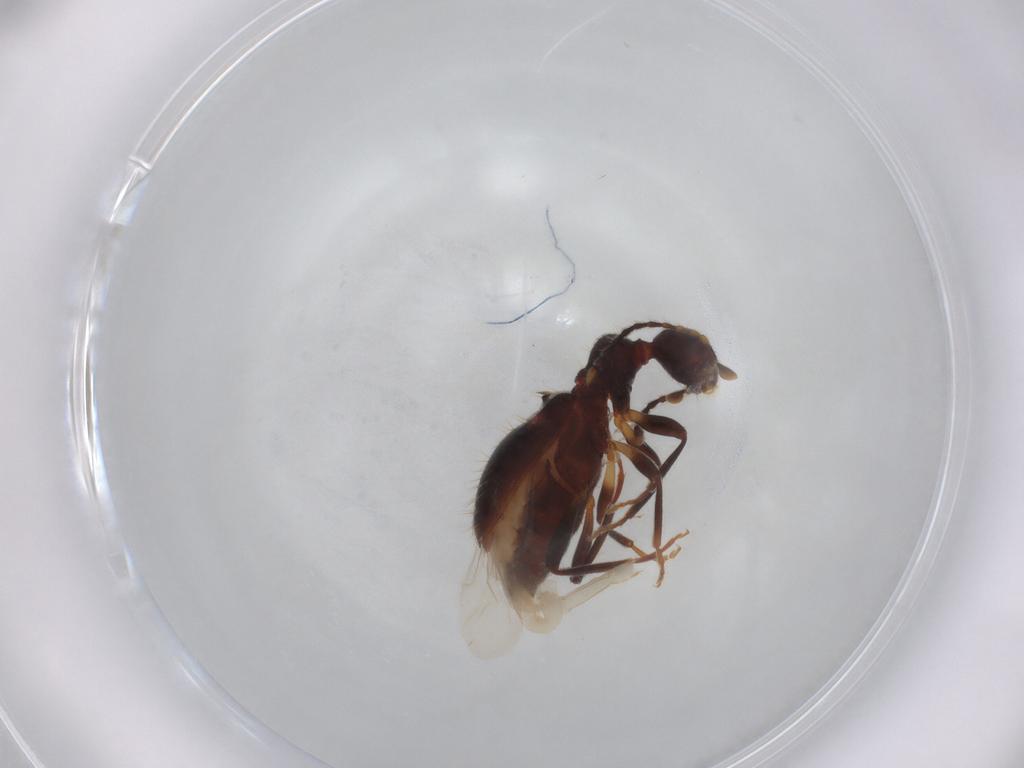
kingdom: Animalia
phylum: Arthropoda
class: Insecta
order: Coleoptera
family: Anthicidae
